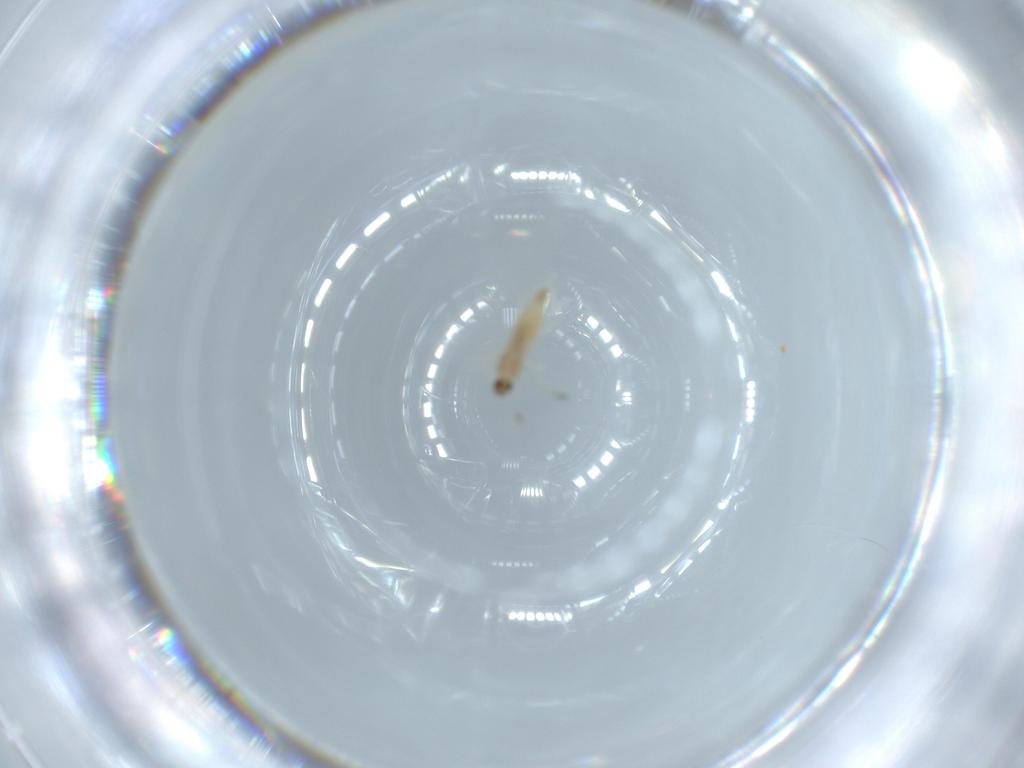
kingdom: Animalia
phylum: Arthropoda
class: Insecta
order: Diptera
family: Cecidomyiidae
